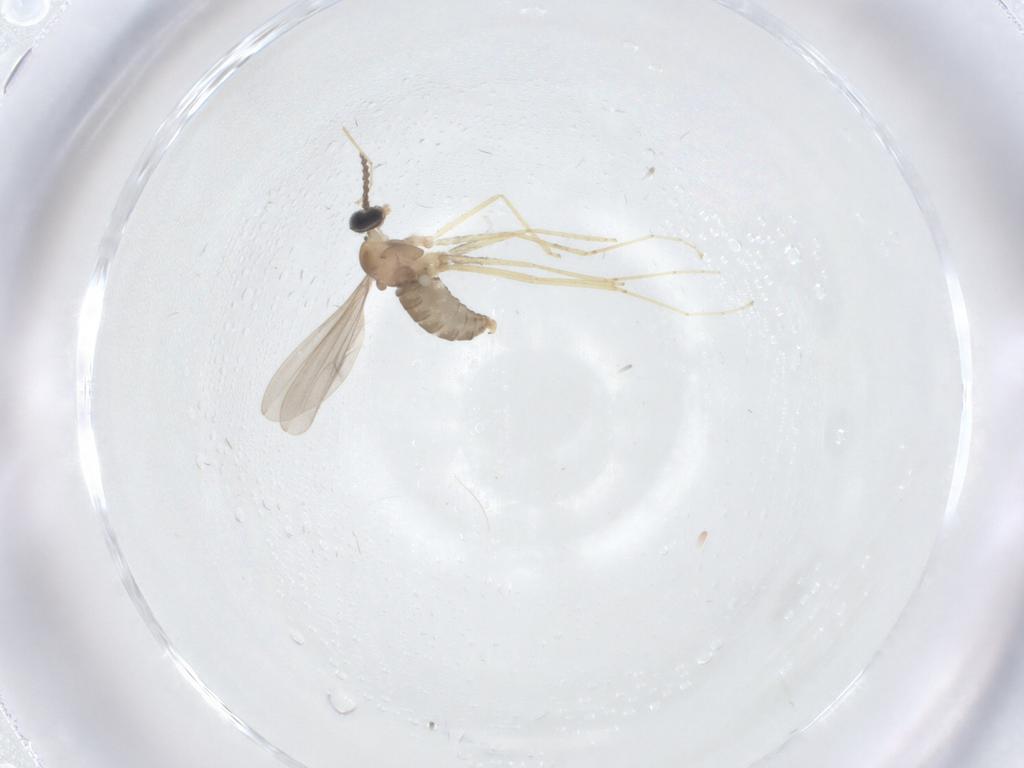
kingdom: Animalia
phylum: Arthropoda
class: Insecta
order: Diptera
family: Cecidomyiidae
